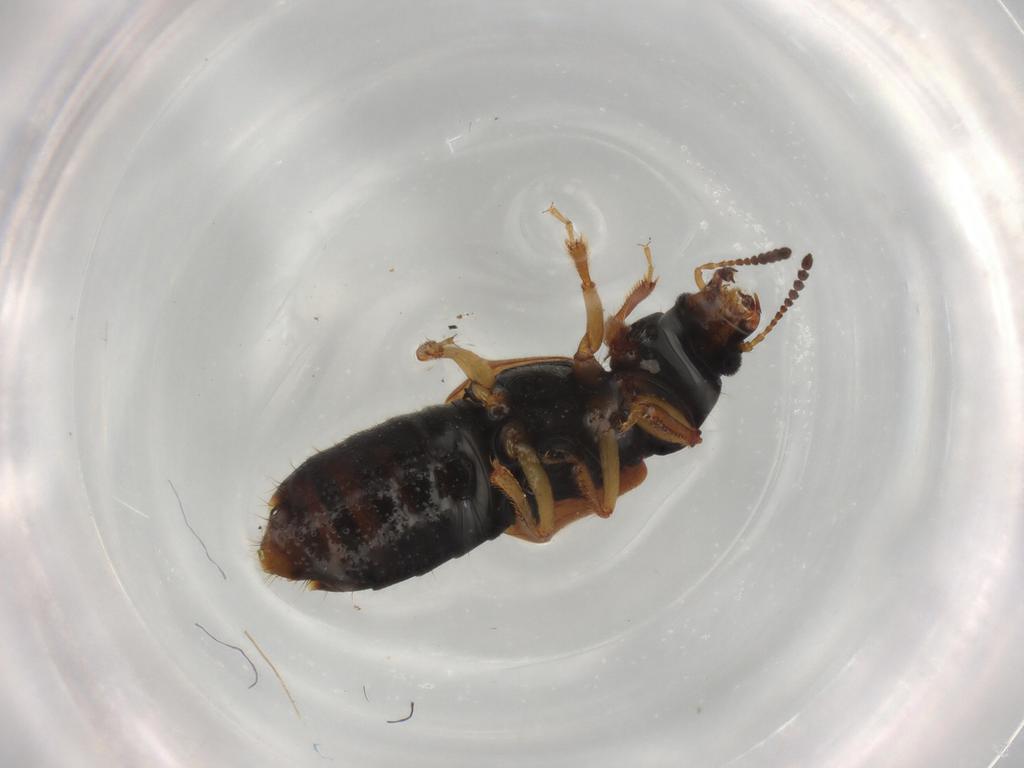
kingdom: Animalia
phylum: Arthropoda
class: Insecta
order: Coleoptera
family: Staphylinidae
